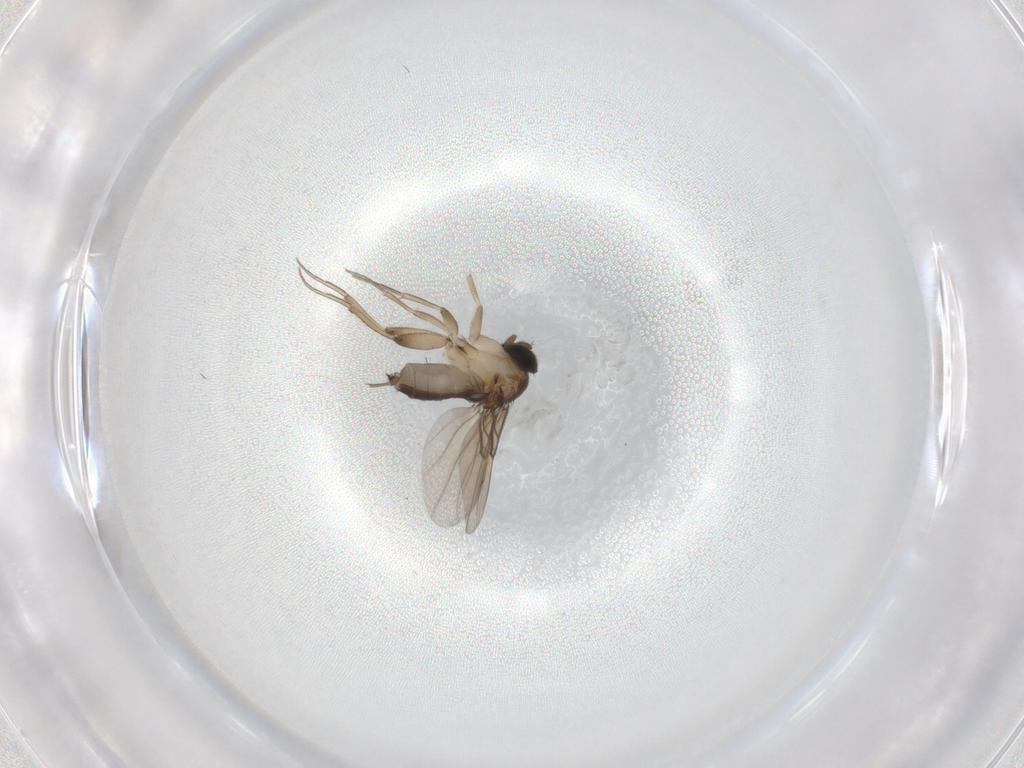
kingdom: Animalia
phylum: Arthropoda
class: Insecta
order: Diptera
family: Phoridae
